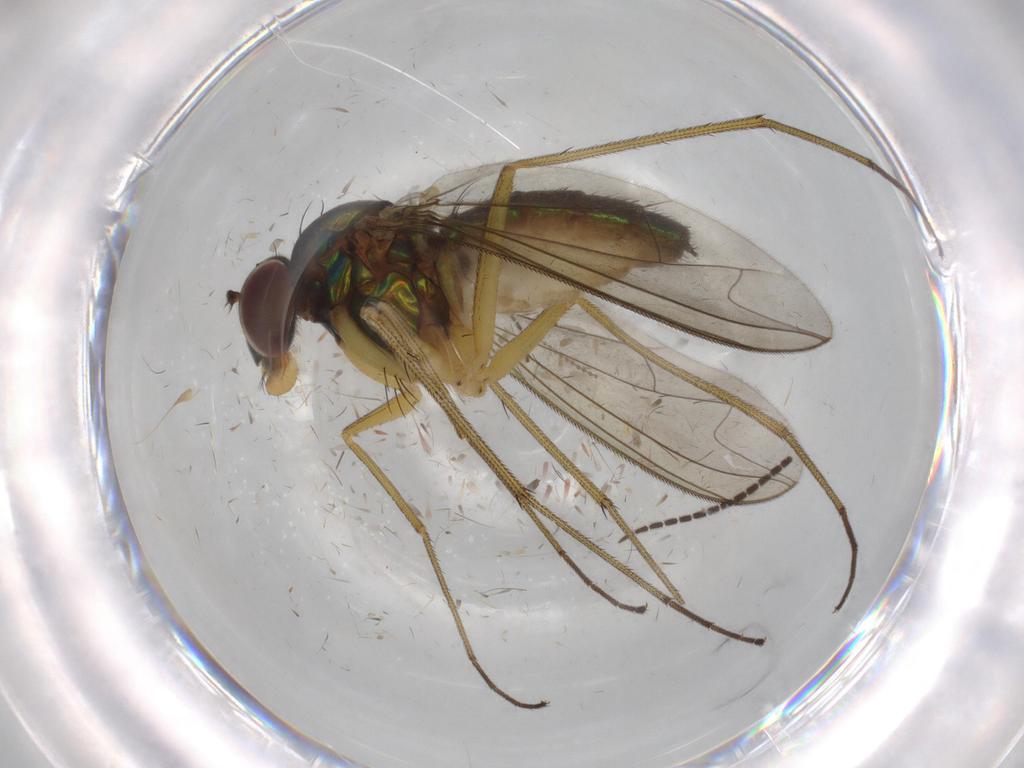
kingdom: Animalia
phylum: Arthropoda
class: Insecta
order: Diptera
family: Dolichopodidae
